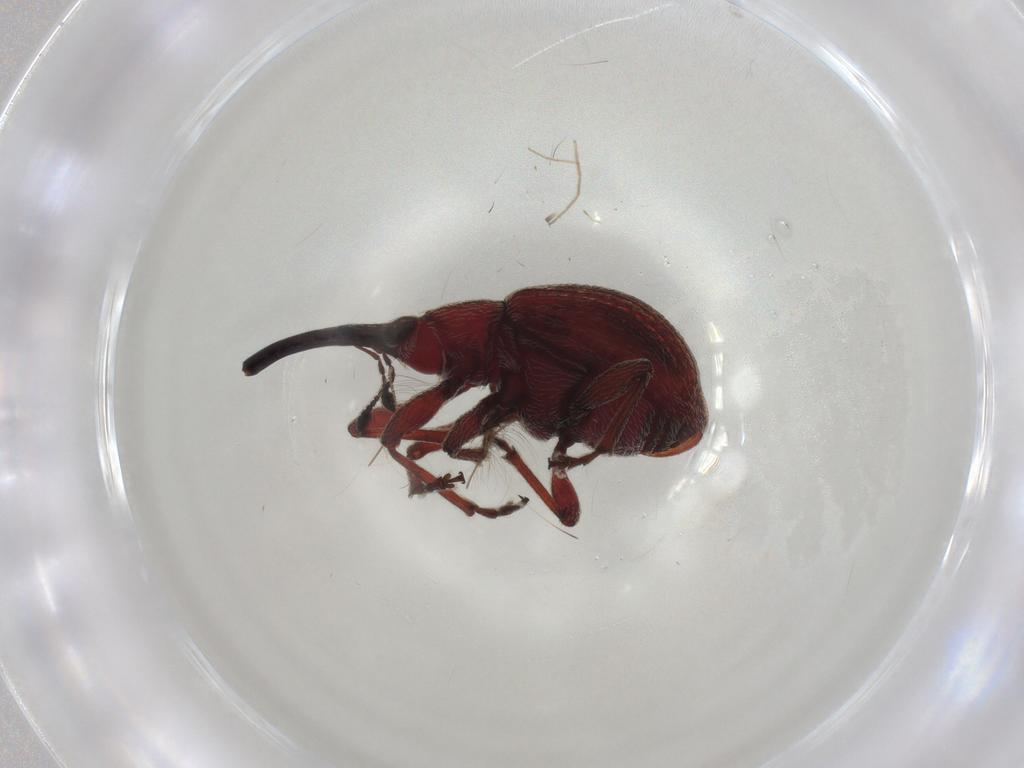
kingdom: Animalia
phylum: Arthropoda
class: Insecta
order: Coleoptera
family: Brentidae
